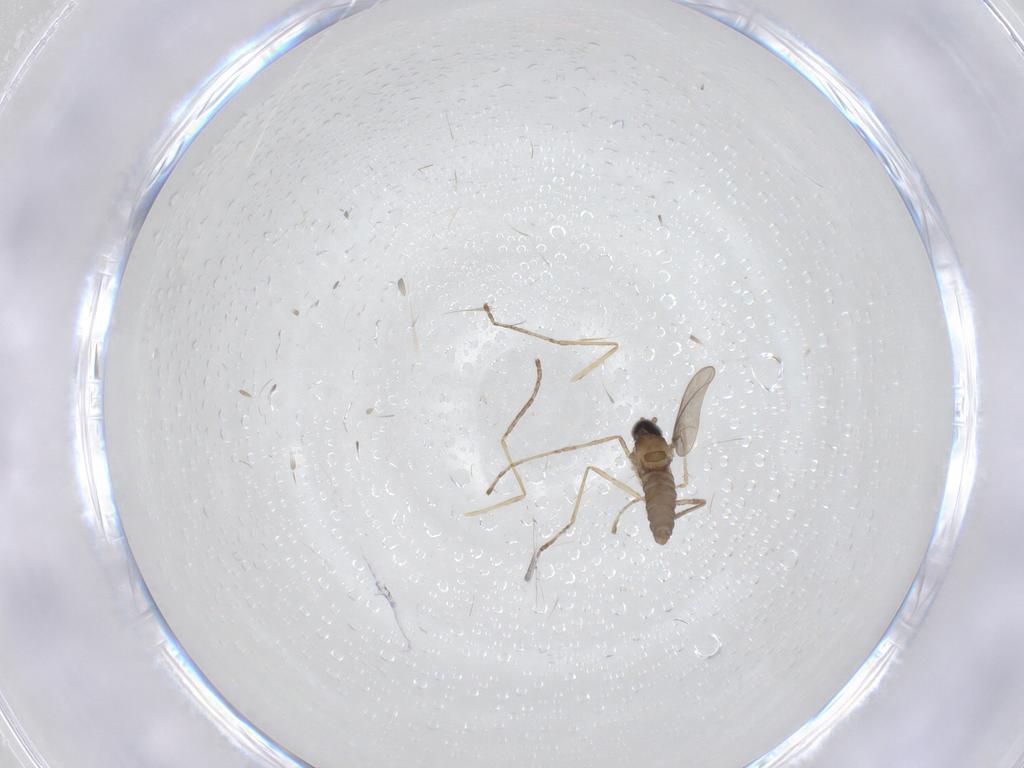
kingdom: Animalia
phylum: Arthropoda
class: Insecta
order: Diptera
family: Cecidomyiidae
